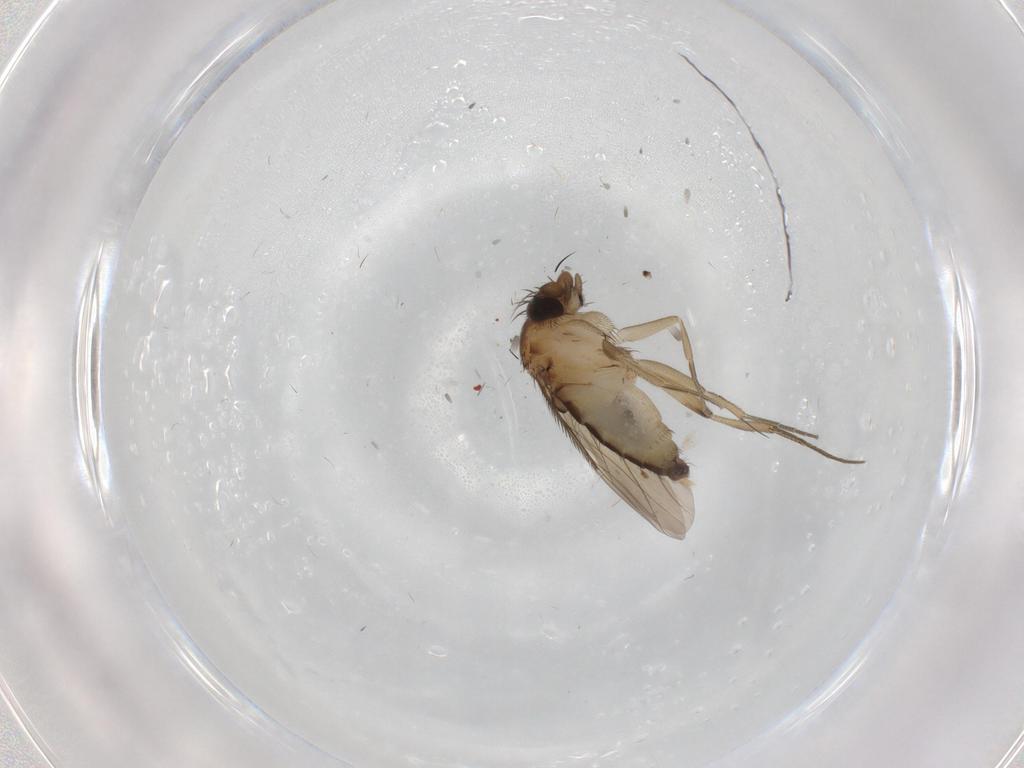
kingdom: Animalia
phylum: Arthropoda
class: Insecta
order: Diptera
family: Phoridae
